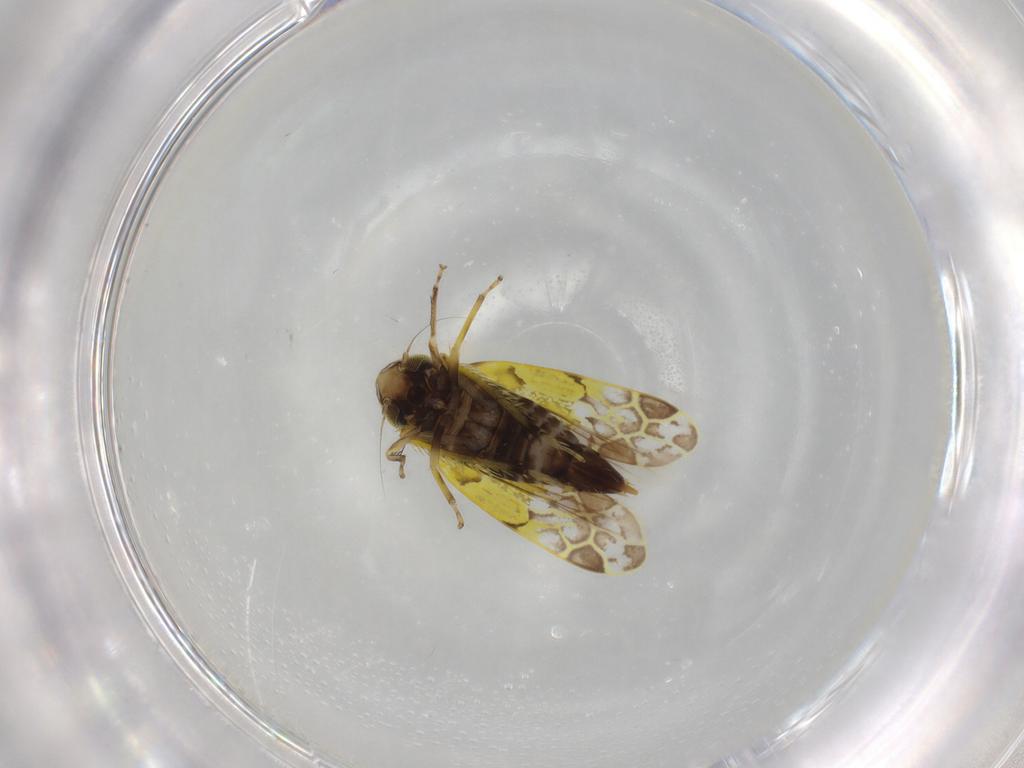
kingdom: Animalia
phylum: Arthropoda
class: Insecta
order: Hemiptera
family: Cicadellidae
